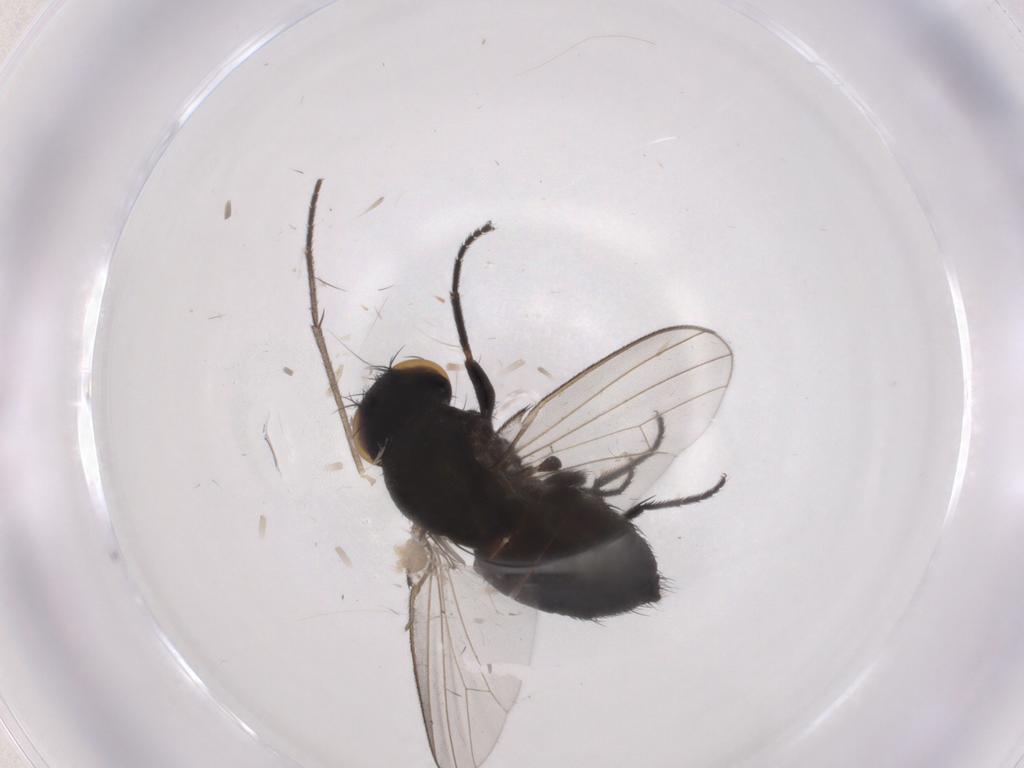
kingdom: Animalia
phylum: Arthropoda
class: Insecta
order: Diptera
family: Milichiidae
